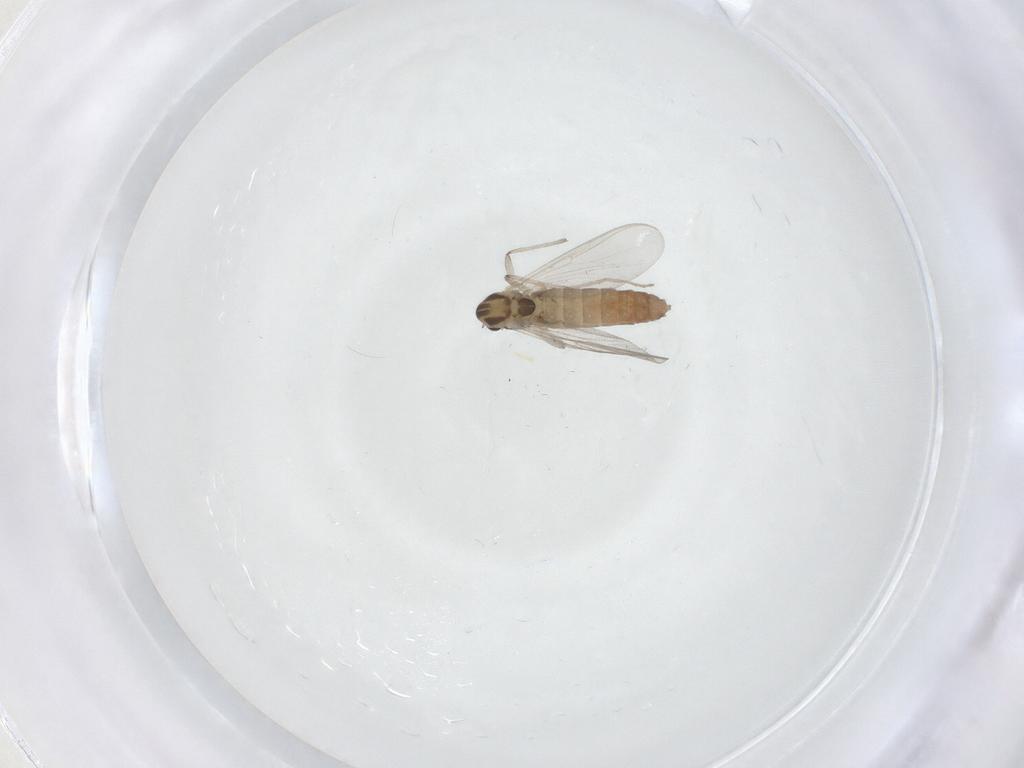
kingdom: Animalia
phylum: Arthropoda
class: Insecta
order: Diptera
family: Chironomidae
